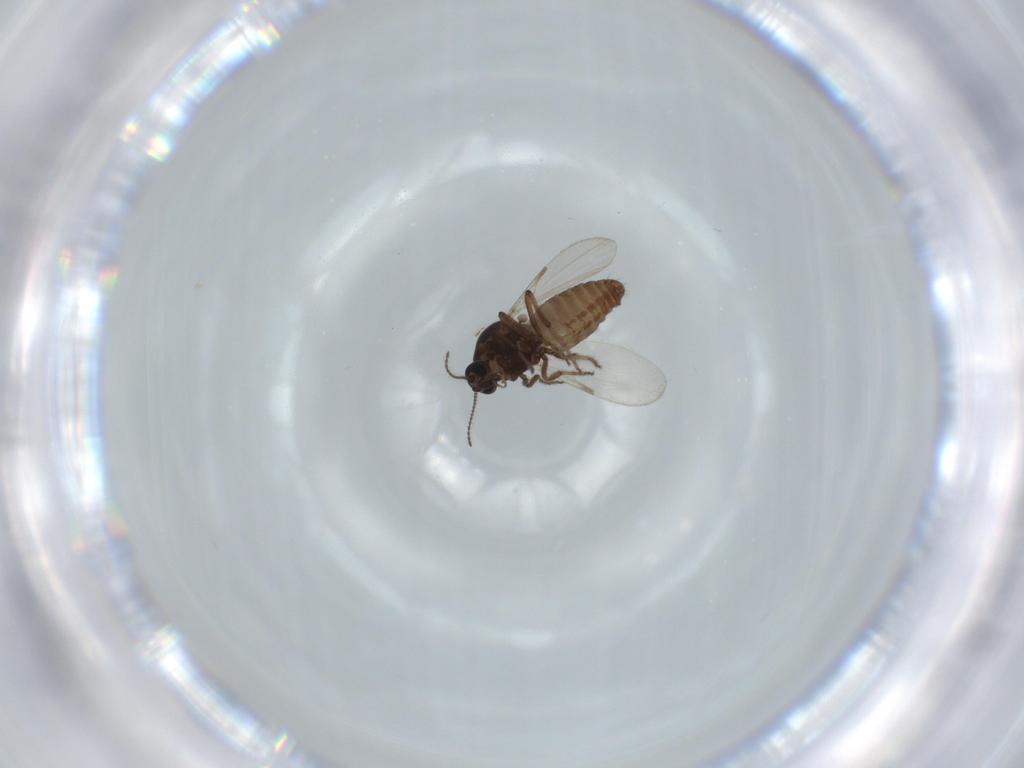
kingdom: Animalia
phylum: Arthropoda
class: Insecta
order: Diptera
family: Chironomidae
